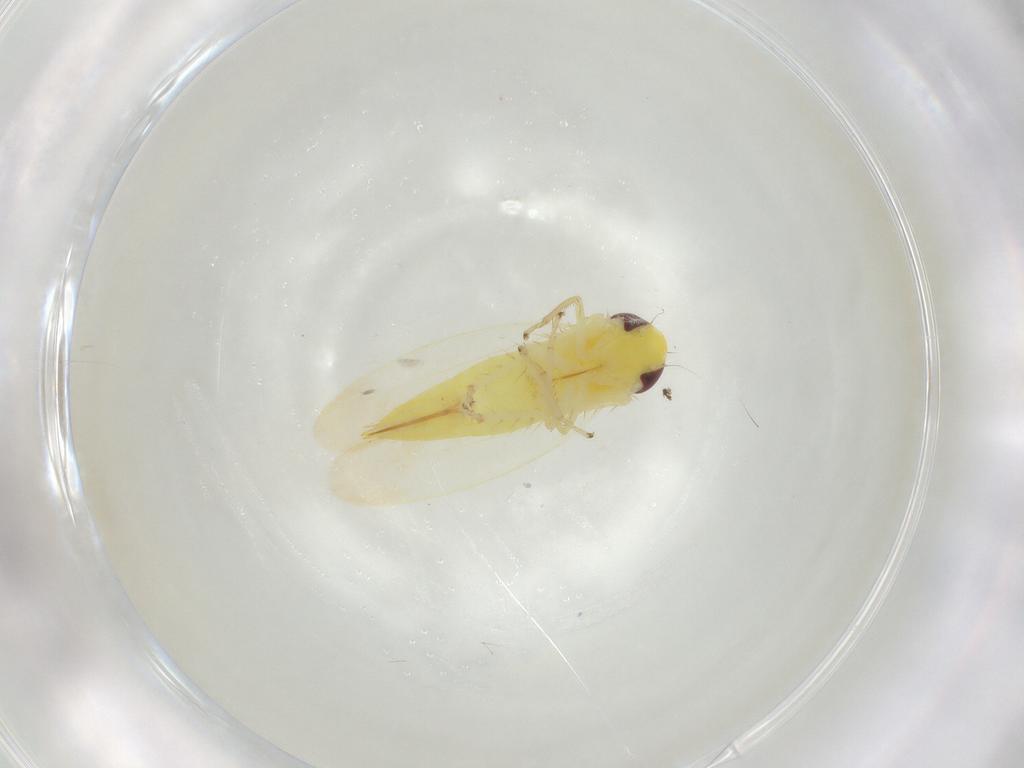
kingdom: Animalia
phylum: Arthropoda
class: Insecta
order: Hemiptera
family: Cicadellidae
